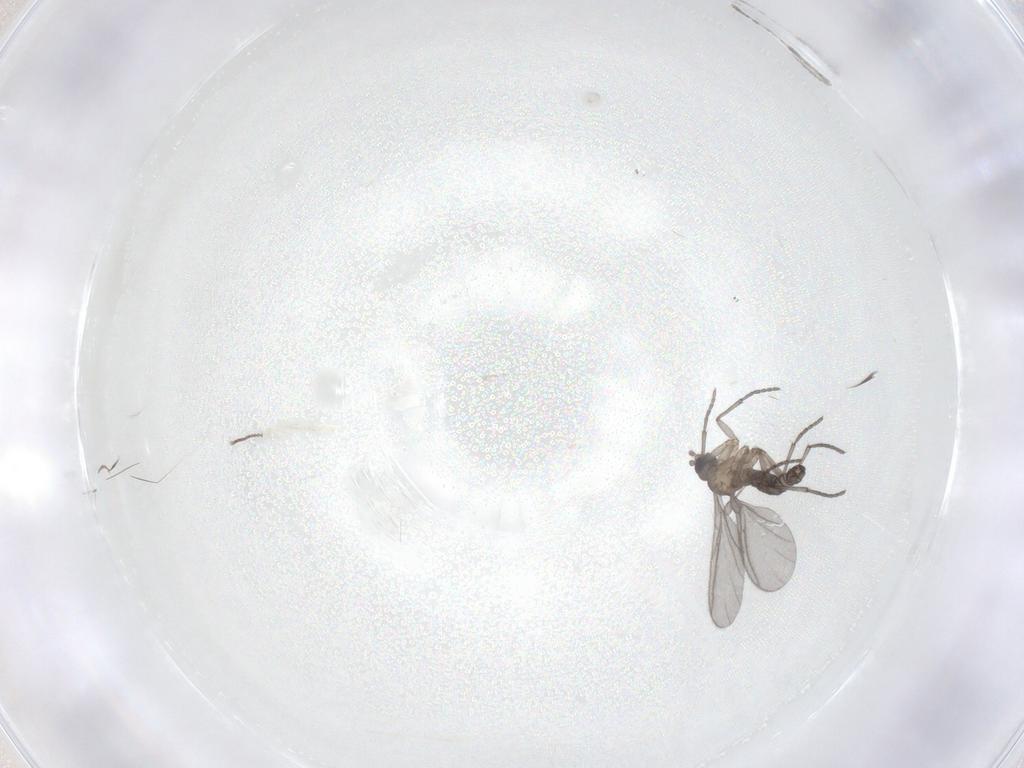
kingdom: Animalia
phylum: Arthropoda
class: Insecta
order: Diptera
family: Sciaridae
